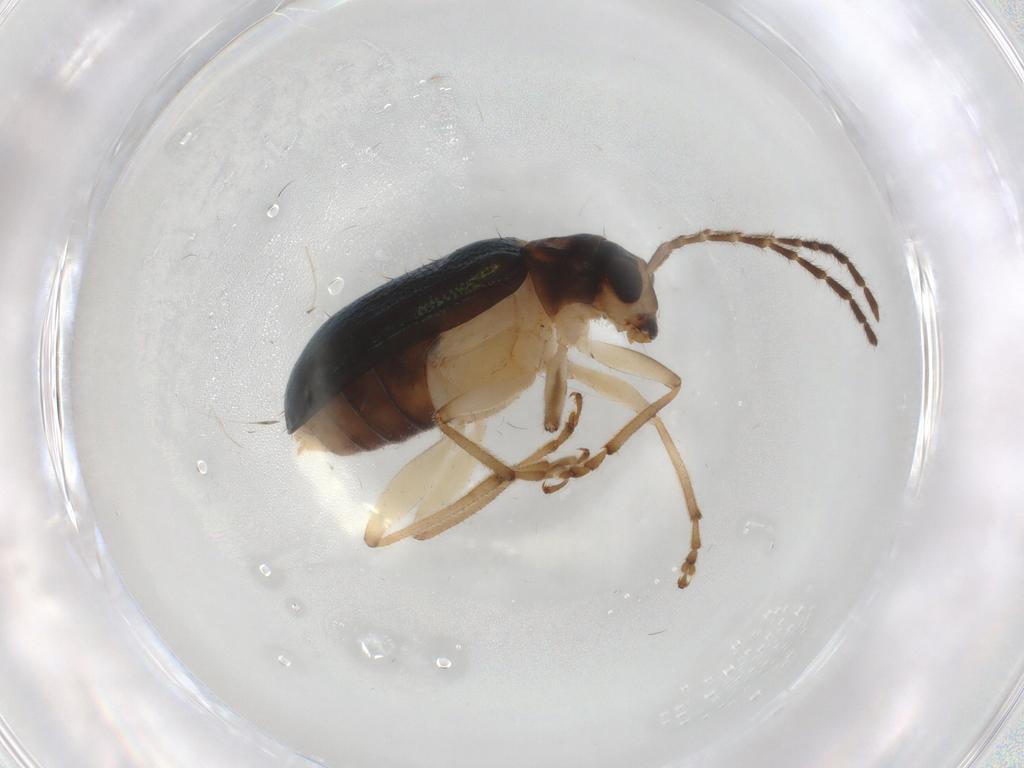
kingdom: Animalia
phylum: Arthropoda
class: Insecta
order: Coleoptera
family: Chrysomelidae
